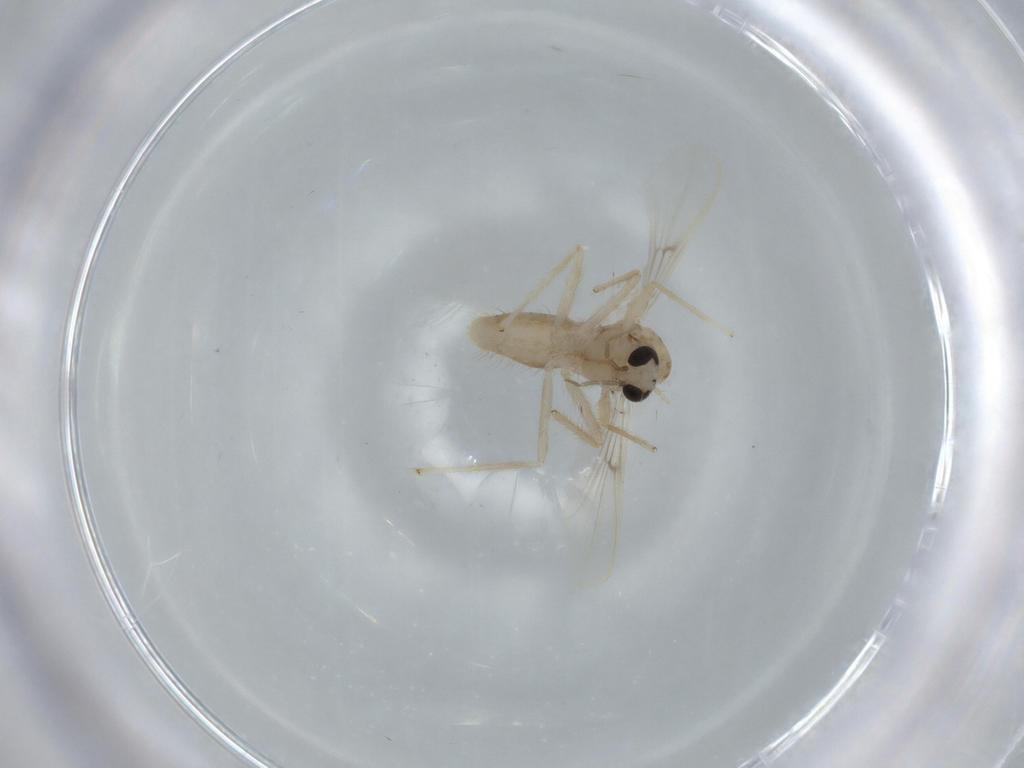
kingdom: Animalia
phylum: Arthropoda
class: Insecta
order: Diptera
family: Chironomidae
